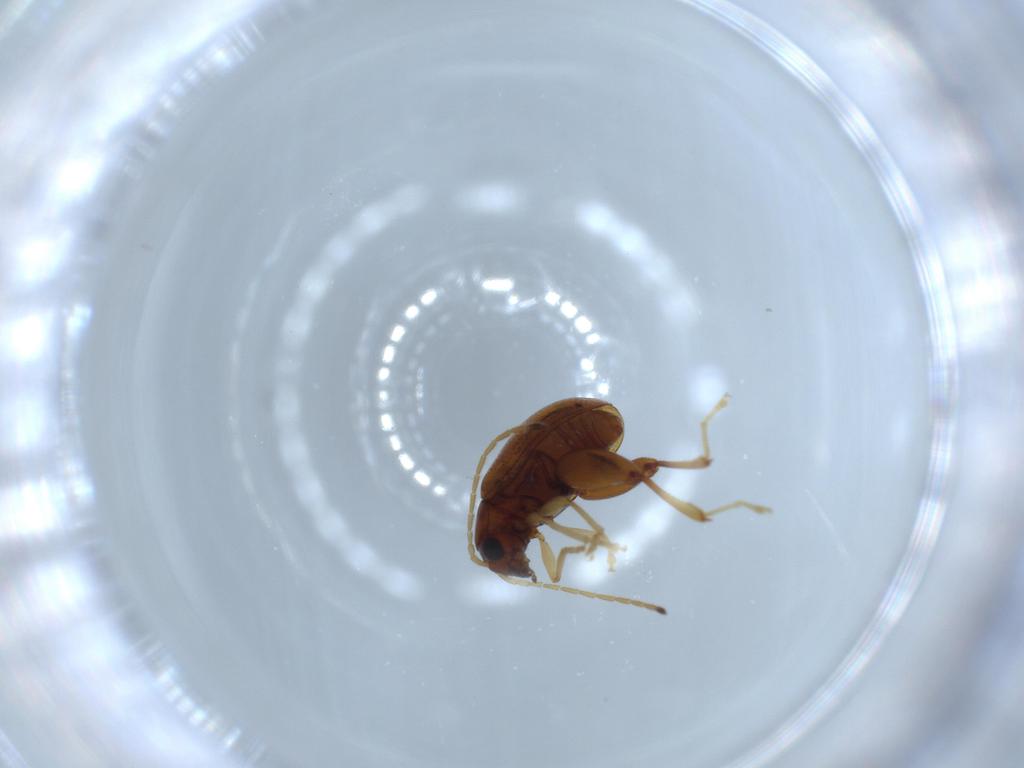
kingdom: Animalia
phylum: Arthropoda
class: Insecta
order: Coleoptera
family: Chrysomelidae
